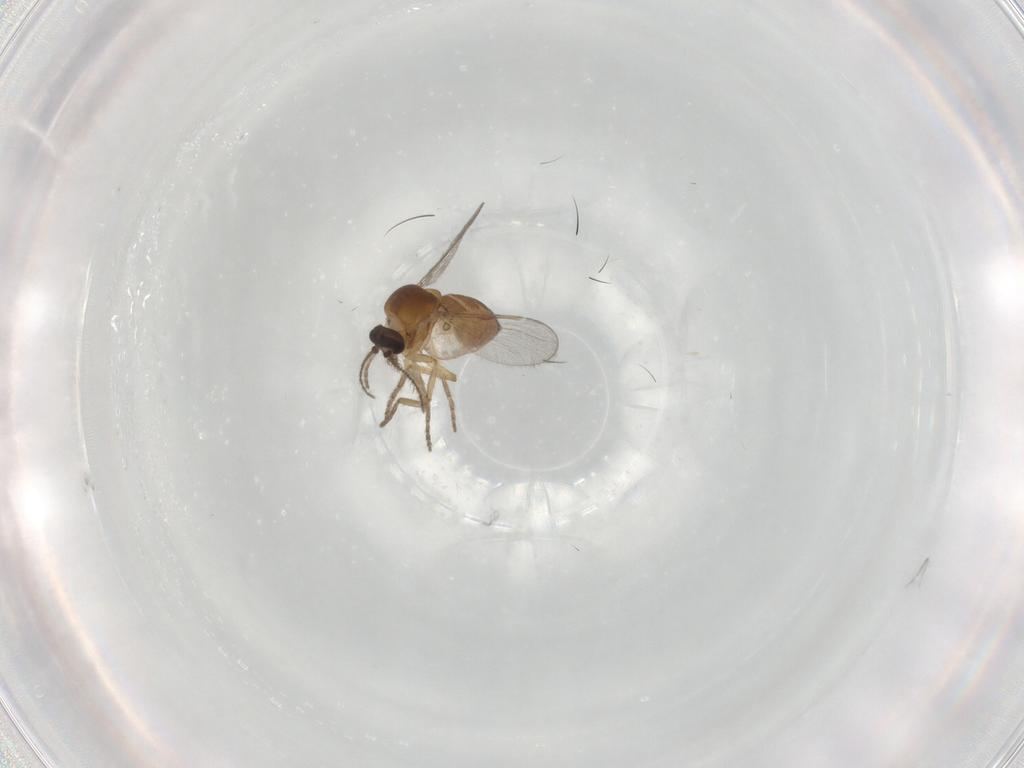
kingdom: Animalia
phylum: Arthropoda
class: Insecta
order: Diptera
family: Ceratopogonidae
